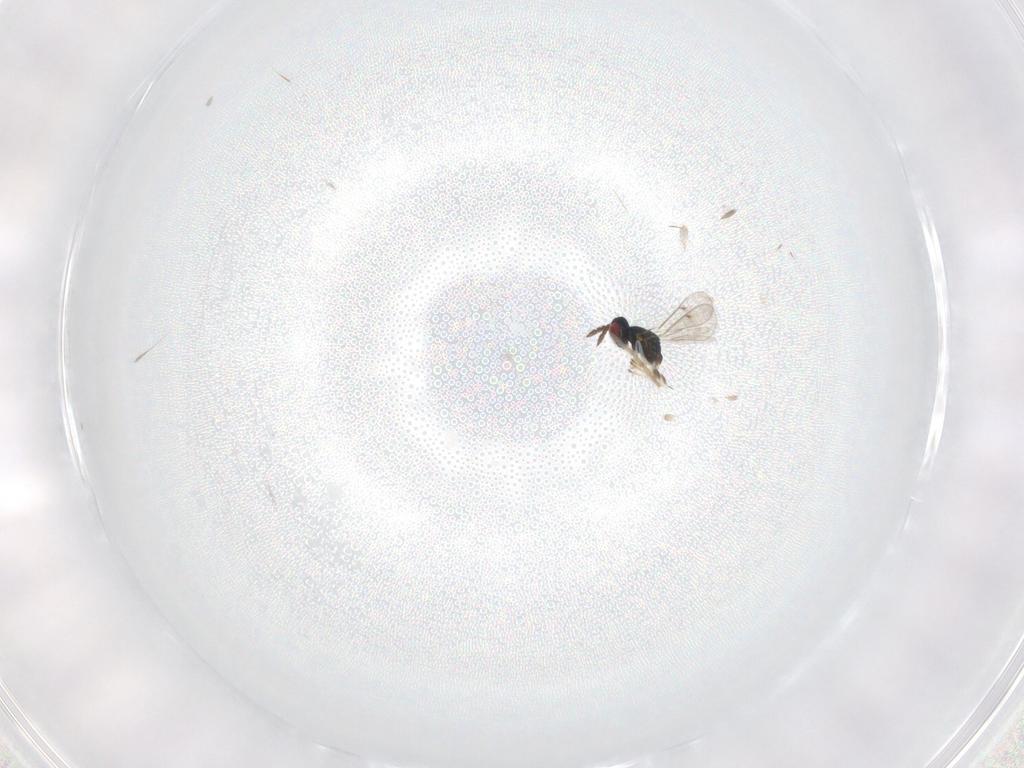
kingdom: Animalia
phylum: Arthropoda
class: Insecta
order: Hymenoptera
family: Eulophidae
